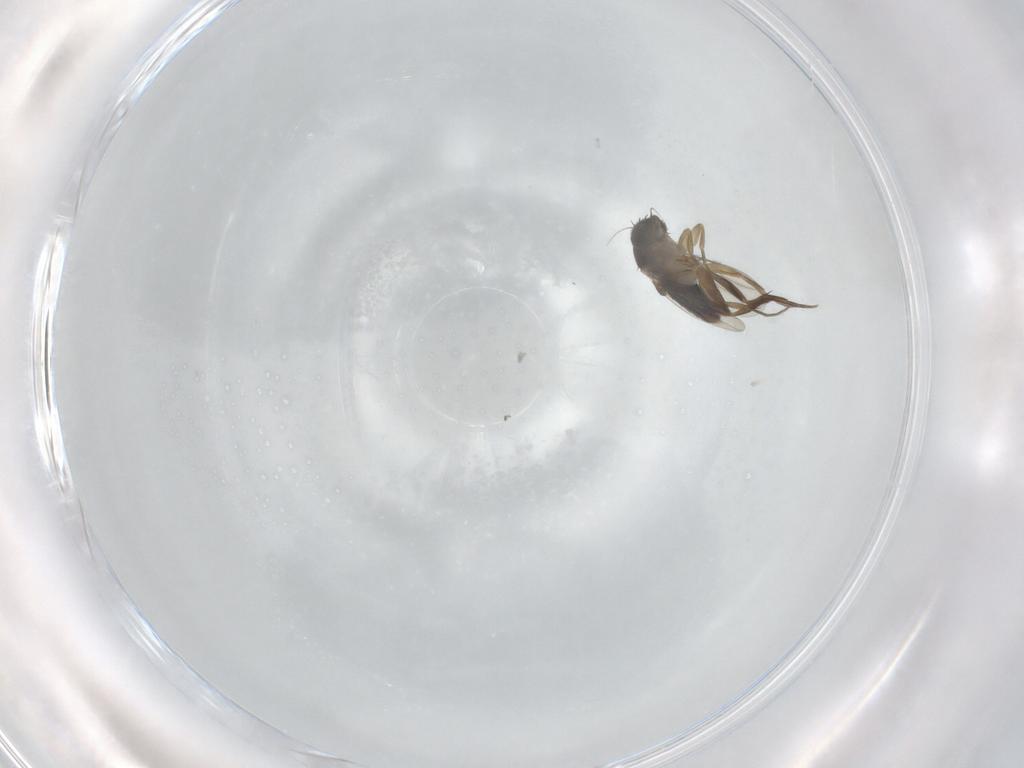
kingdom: Animalia
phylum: Arthropoda
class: Insecta
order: Diptera
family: Phoridae
